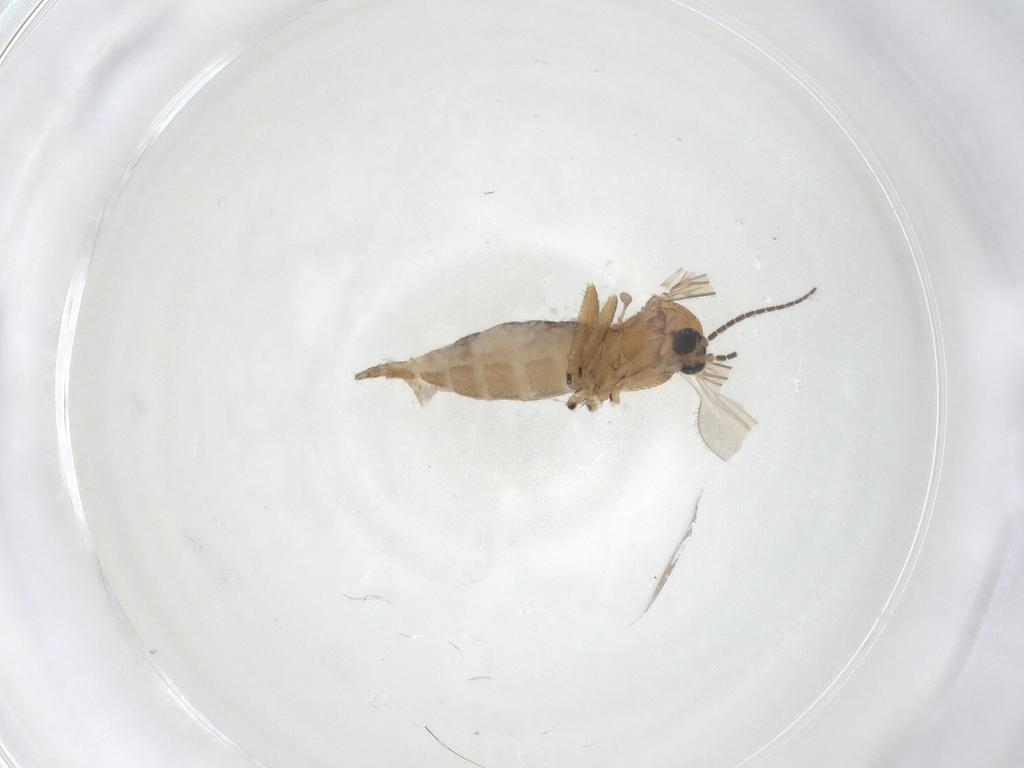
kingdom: Animalia
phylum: Arthropoda
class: Insecta
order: Diptera
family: Sciaridae
